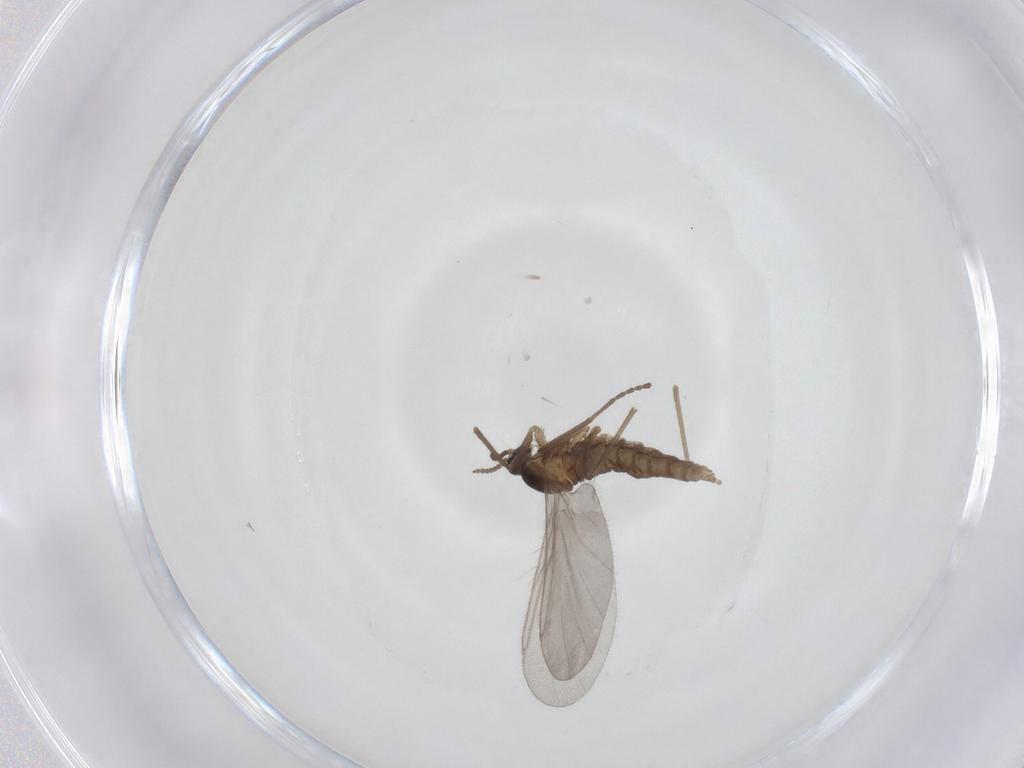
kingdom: Animalia
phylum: Arthropoda
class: Insecta
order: Diptera
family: Cecidomyiidae
